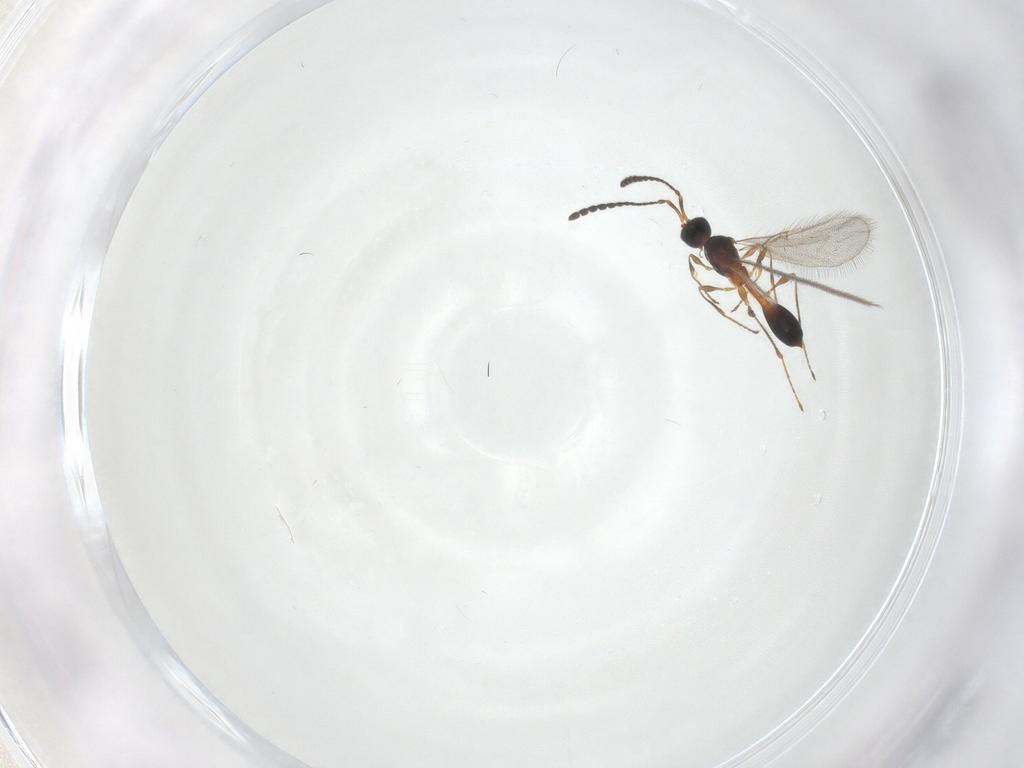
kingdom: Animalia
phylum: Arthropoda
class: Insecta
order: Hymenoptera
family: Diapriidae
